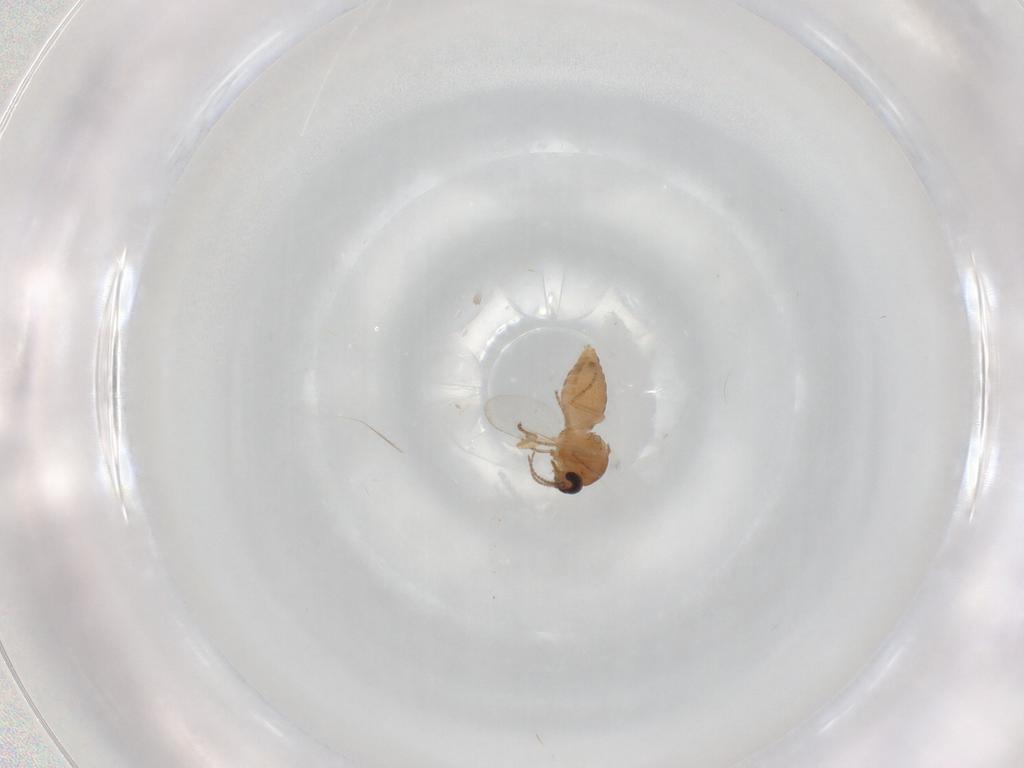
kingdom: Animalia
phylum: Arthropoda
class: Insecta
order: Diptera
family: Ceratopogonidae
